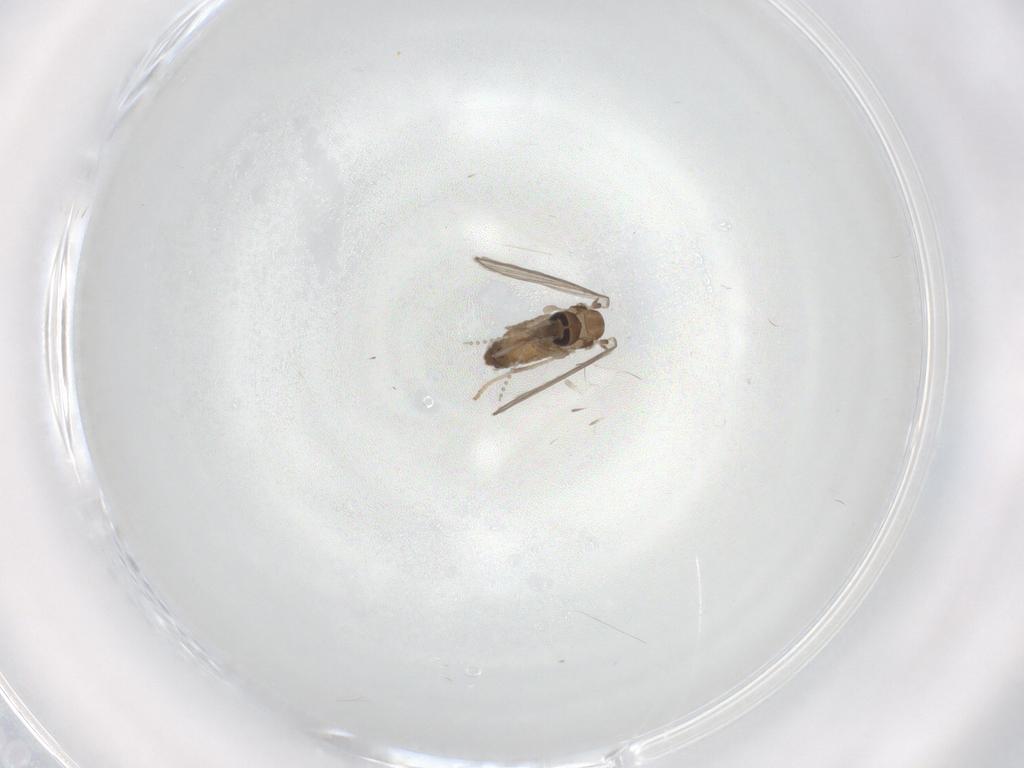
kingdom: Animalia
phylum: Arthropoda
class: Insecta
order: Diptera
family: Psychodidae
